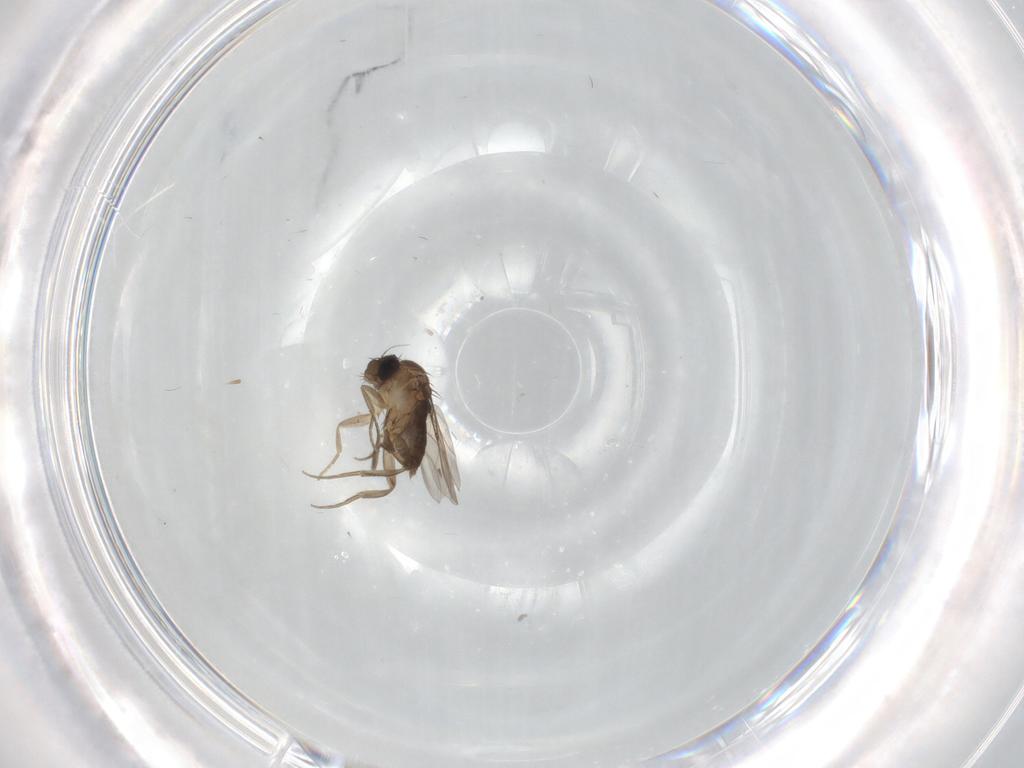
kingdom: Animalia
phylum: Arthropoda
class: Insecta
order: Diptera
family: Phoridae
